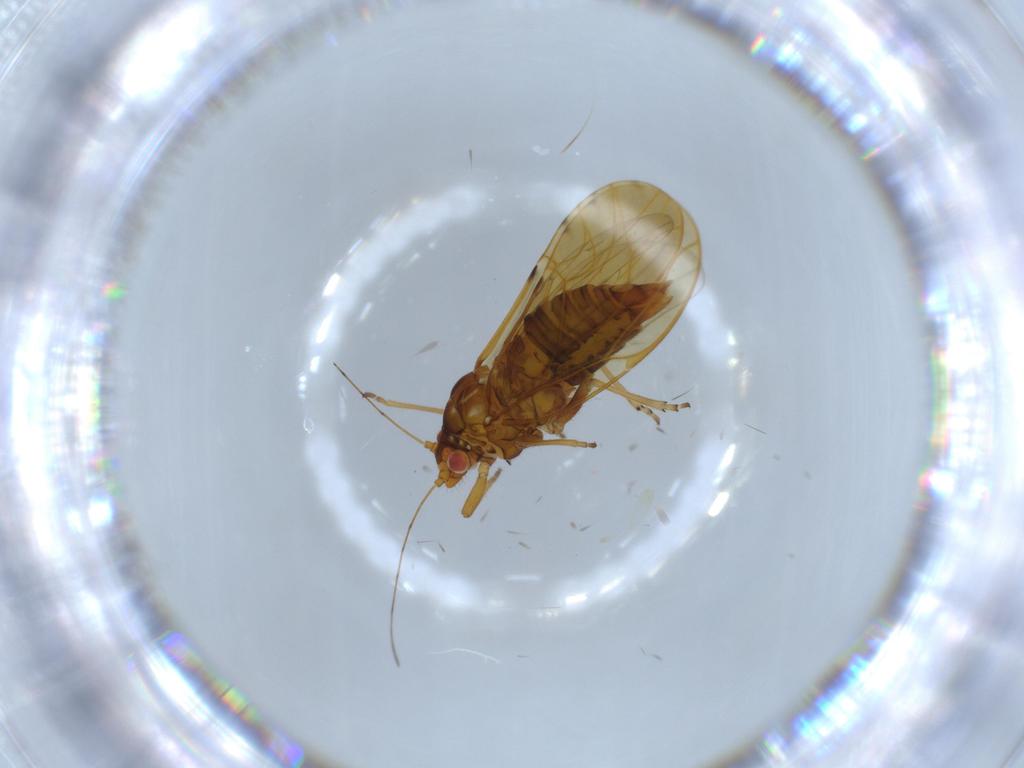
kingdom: Animalia
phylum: Arthropoda
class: Insecta
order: Hemiptera
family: Psylloidea_incertae_sedis
